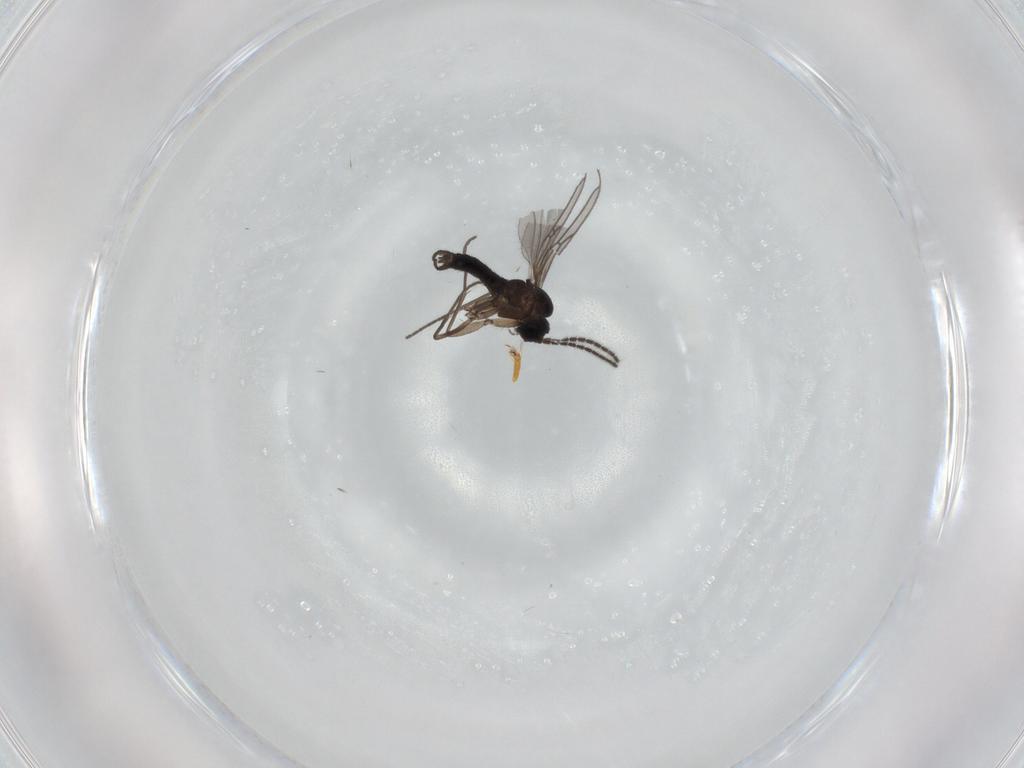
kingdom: Animalia
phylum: Arthropoda
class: Insecta
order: Diptera
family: Sciaridae
